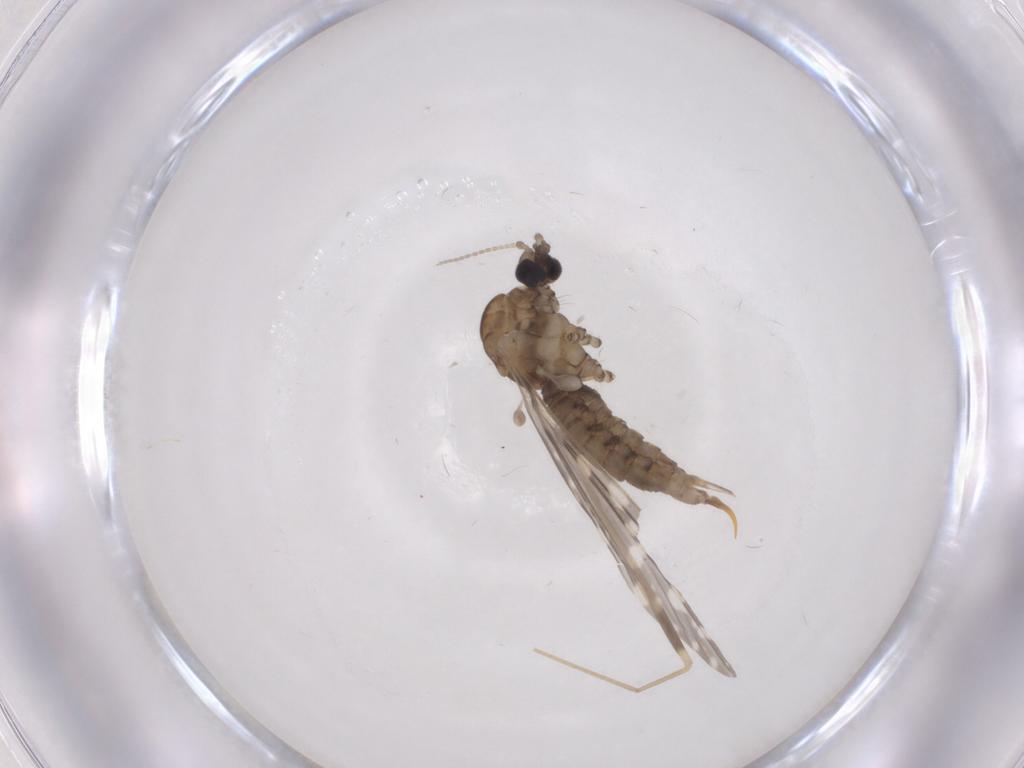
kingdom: Animalia
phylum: Arthropoda
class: Insecta
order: Diptera
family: Limoniidae
